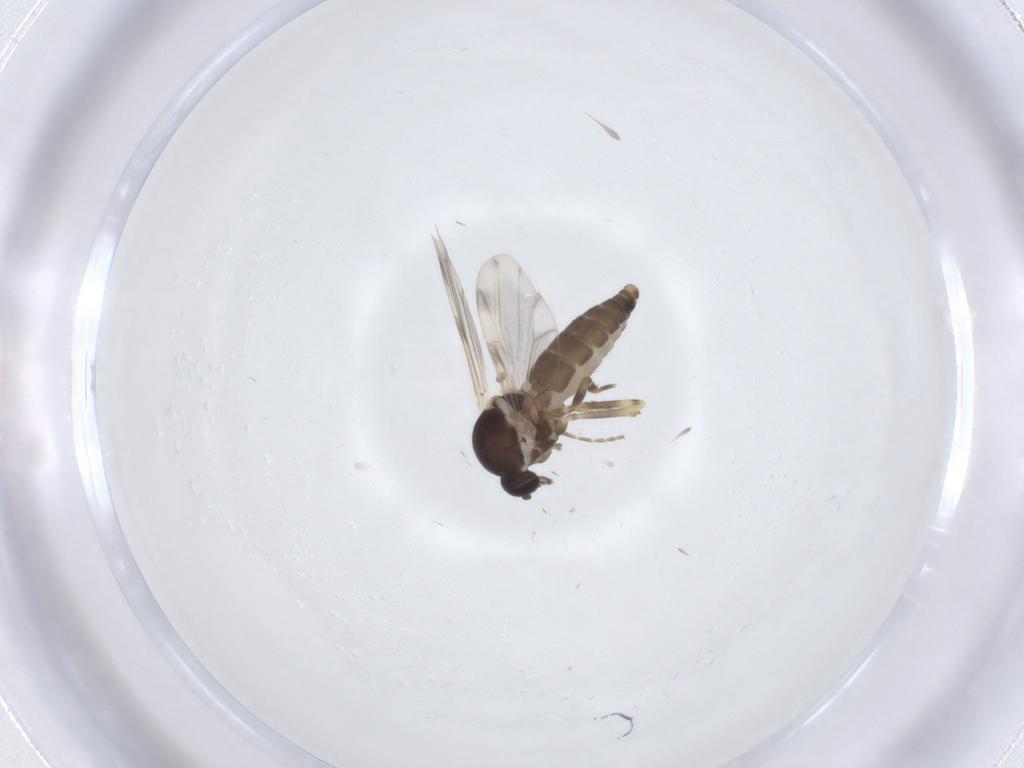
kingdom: Animalia
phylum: Arthropoda
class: Insecta
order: Diptera
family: Ceratopogonidae
